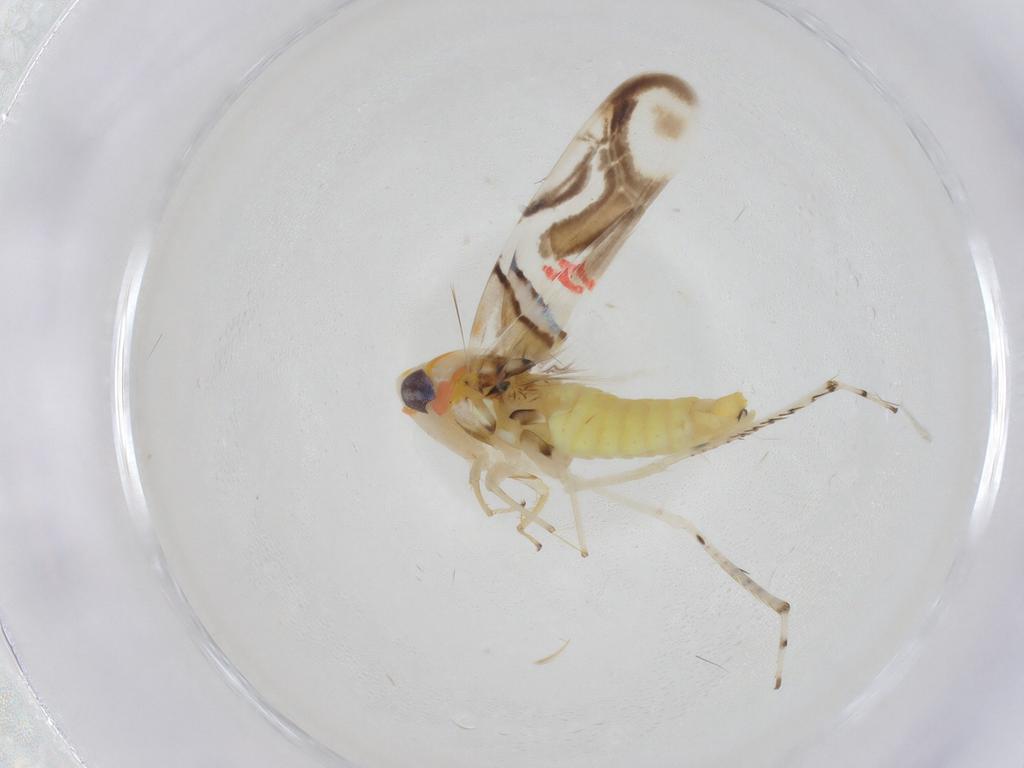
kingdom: Animalia
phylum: Arthropoda
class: Insecta
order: Hemiptera
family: Cicadellidae
